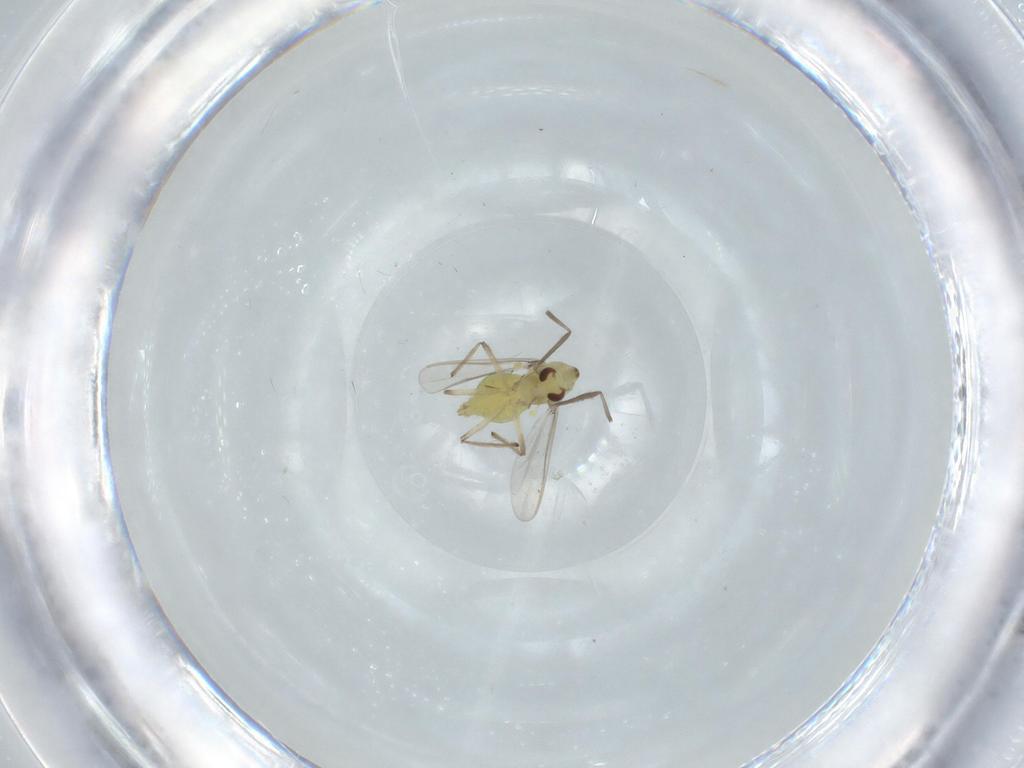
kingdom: Animalia
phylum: Arthropoda
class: Insecta
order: Diptera
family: Chironomidae
